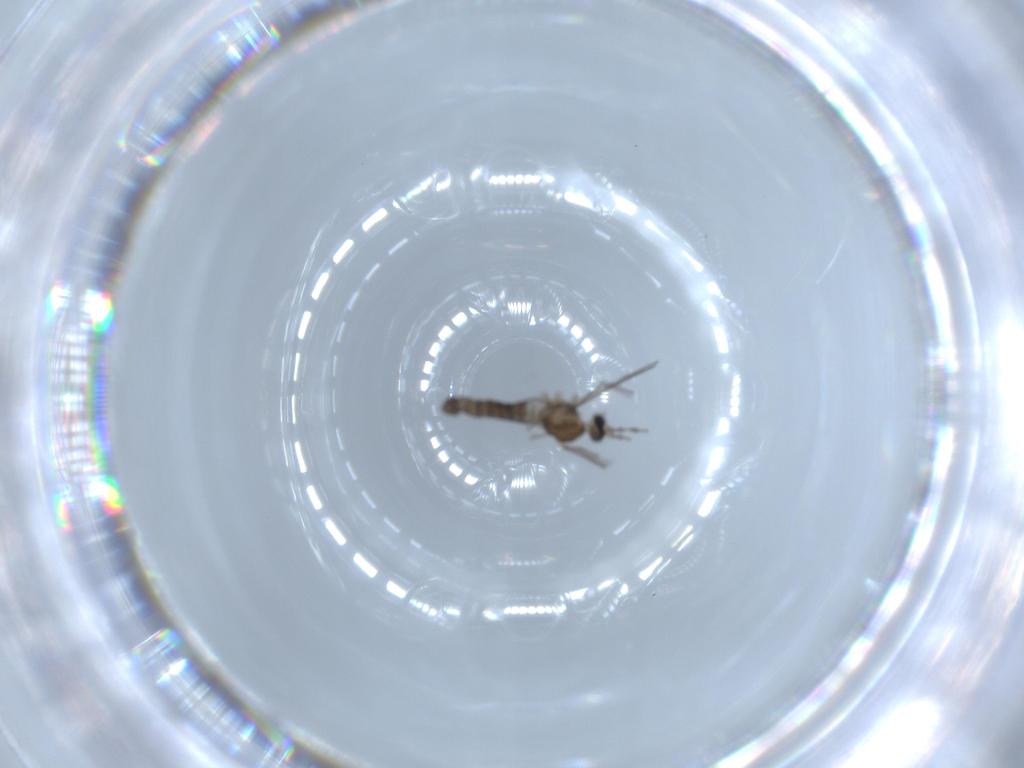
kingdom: Animalia
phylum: Arthropoda
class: Insecta
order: Diptera
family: Cecidomyiidae
